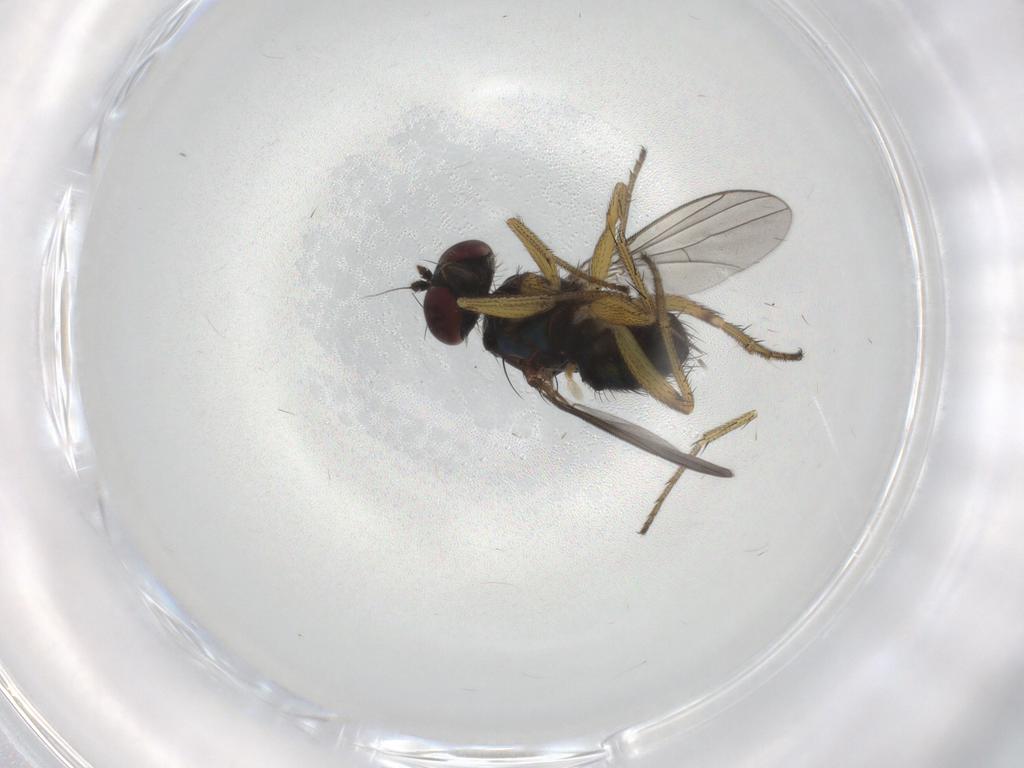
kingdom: Animalia
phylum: Arthropoda
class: Insecta
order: Diptera
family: Dolichopodidae
